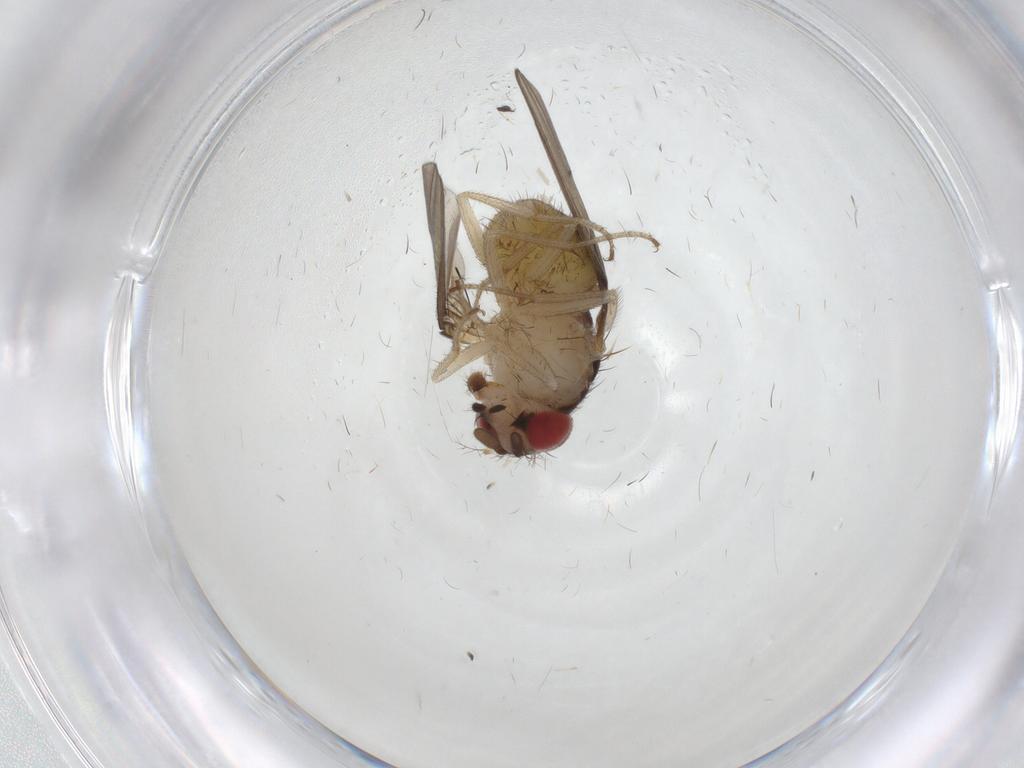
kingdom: Animalia
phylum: Arthropoda
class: Insecta
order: Diptera
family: Drosophilidae
